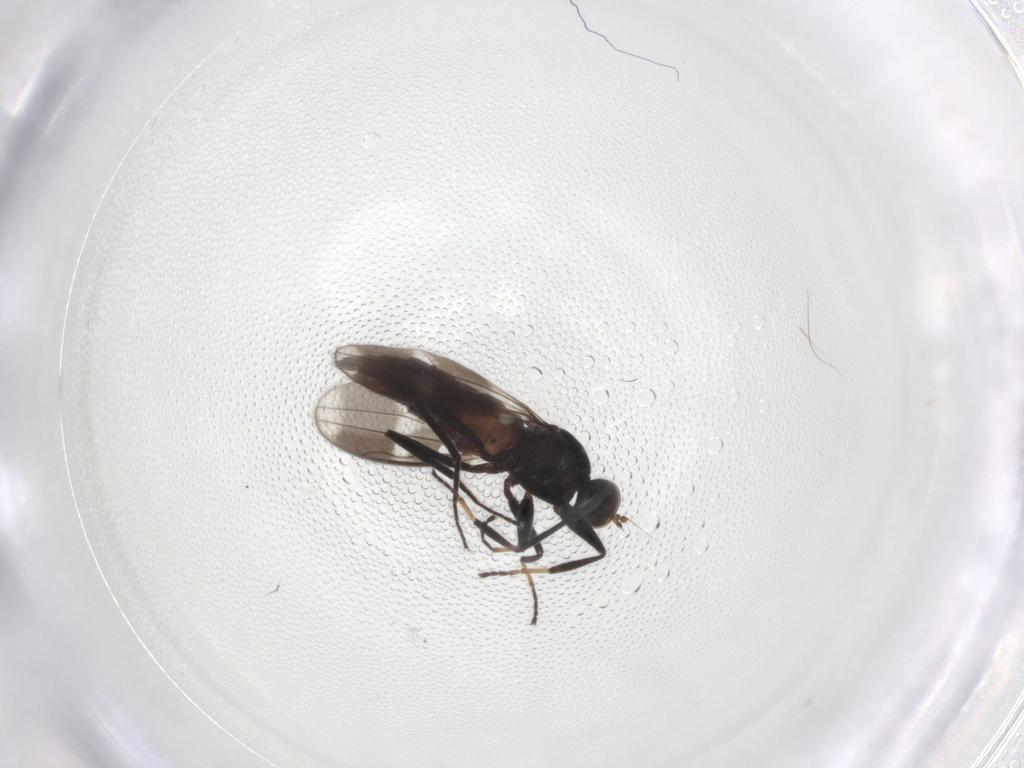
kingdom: Animalia
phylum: Arthropoda
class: Insecta
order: Diptera
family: Hybotidae
